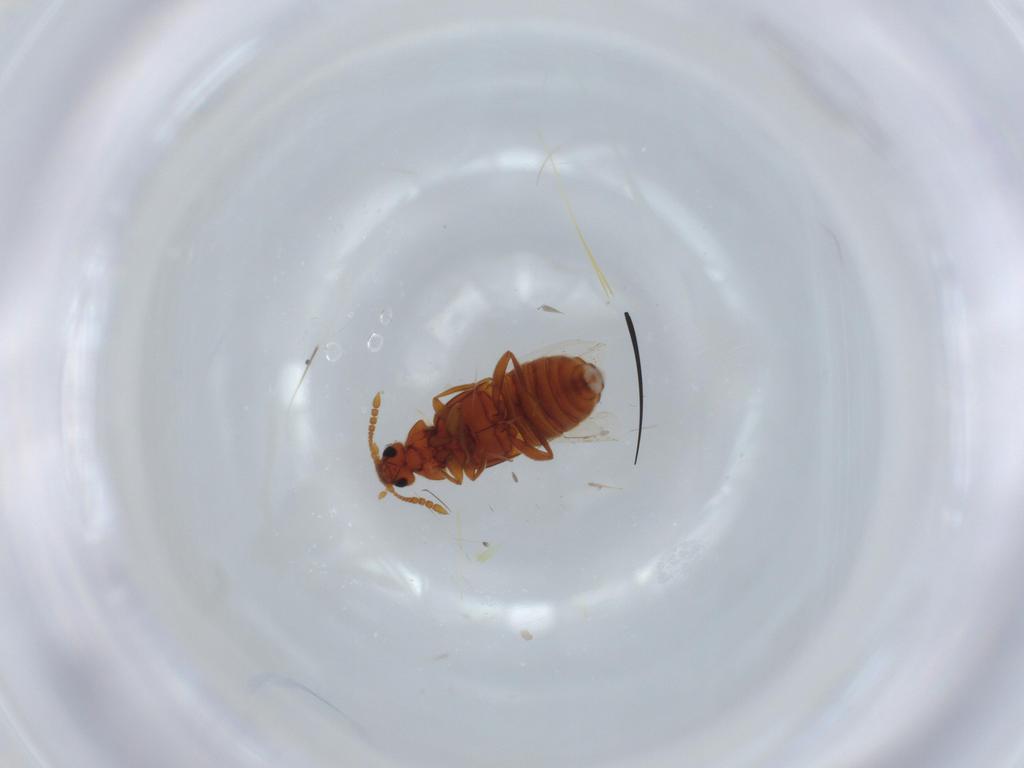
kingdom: Animalia
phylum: Arthropoda
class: Insecta
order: Coleoptera
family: Staphylinidae
